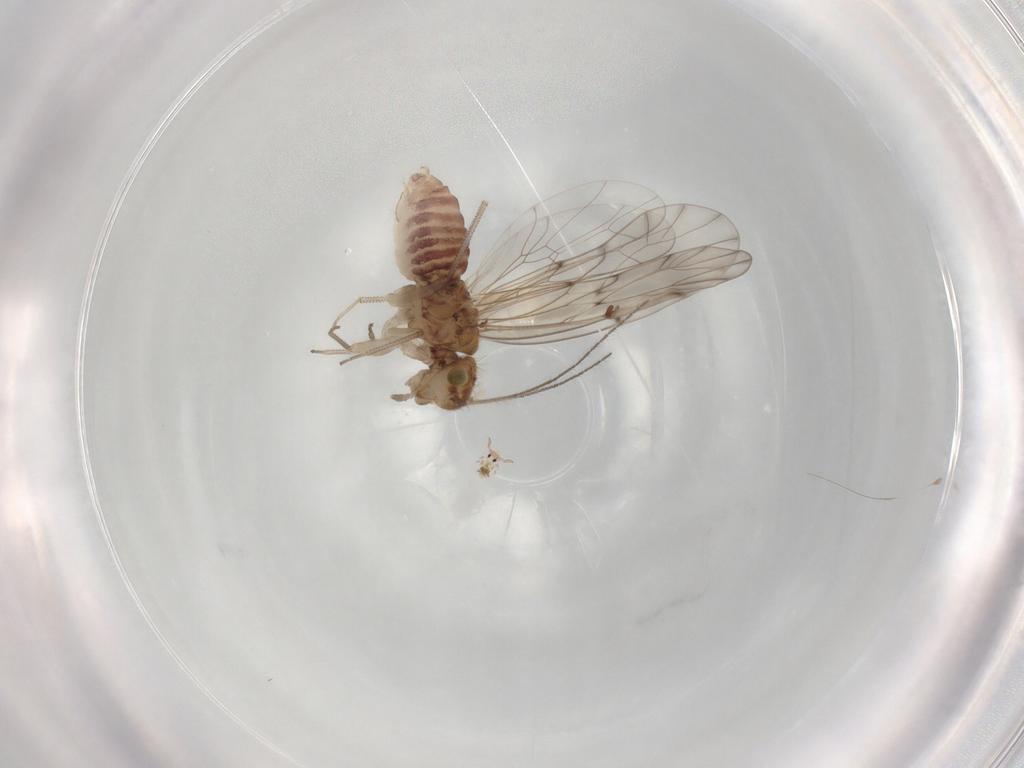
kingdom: Animalia
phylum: Arthropoda
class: Collembola
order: Symphypleona
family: Bourletiellidae
